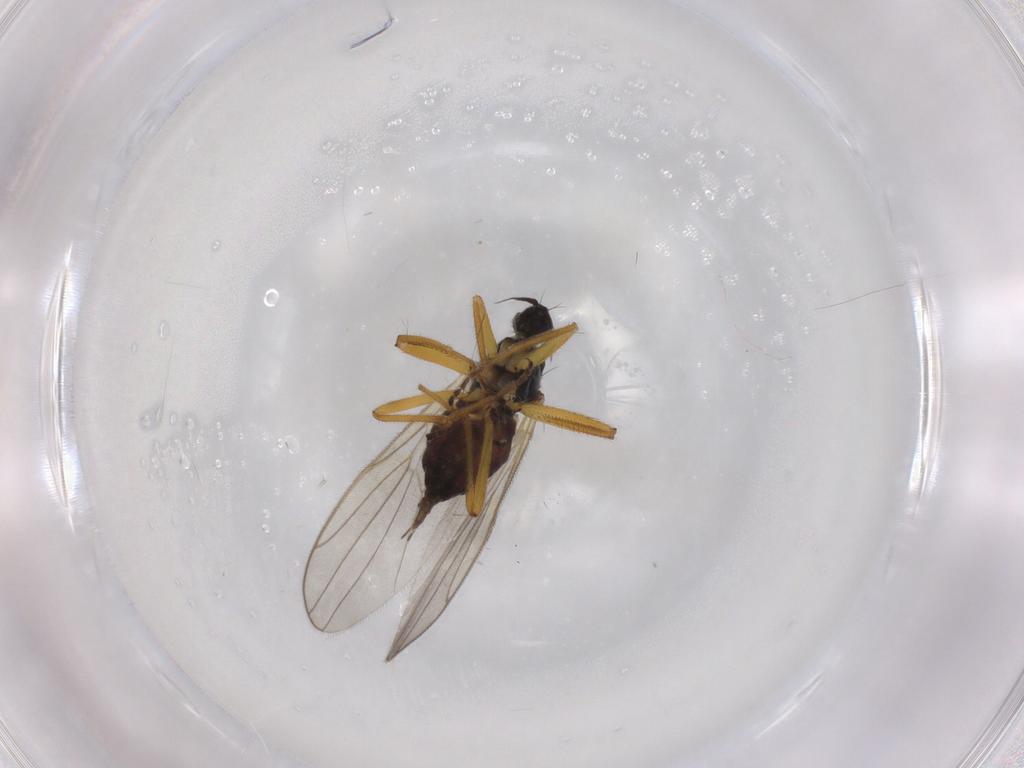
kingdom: Animalia
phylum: Arthropoda
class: Insecta
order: Diptera
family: Hybotidae
